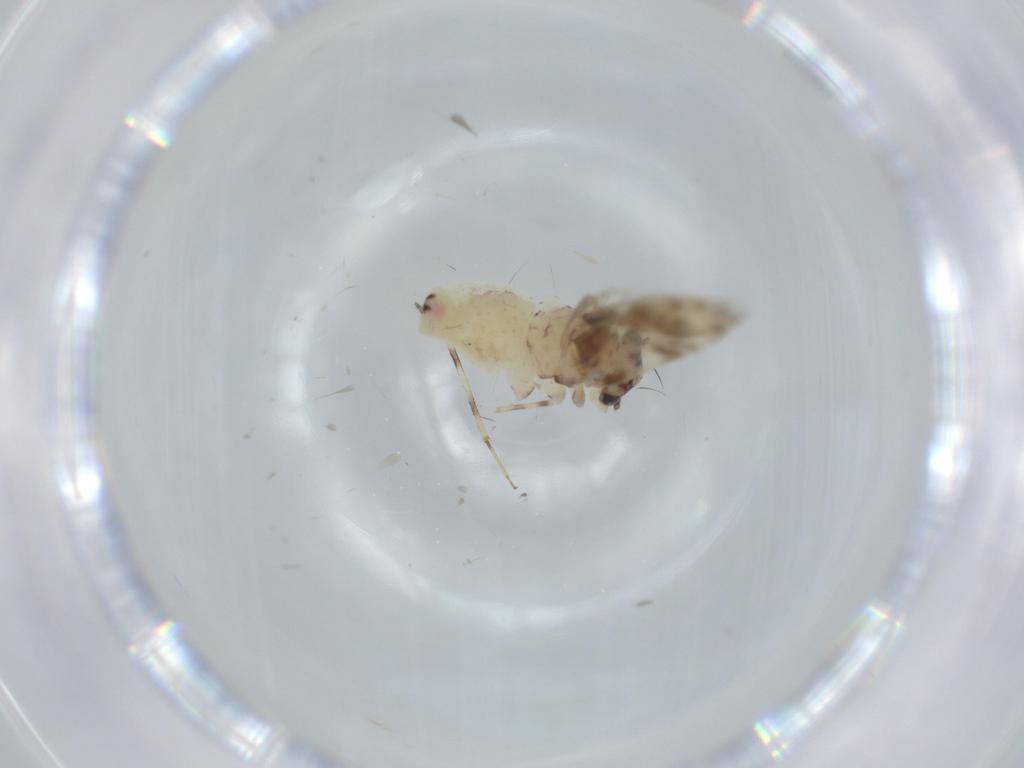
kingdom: Animalia
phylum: Arthropoda
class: Insecta
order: Psocodea
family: Lepidopsocidae
